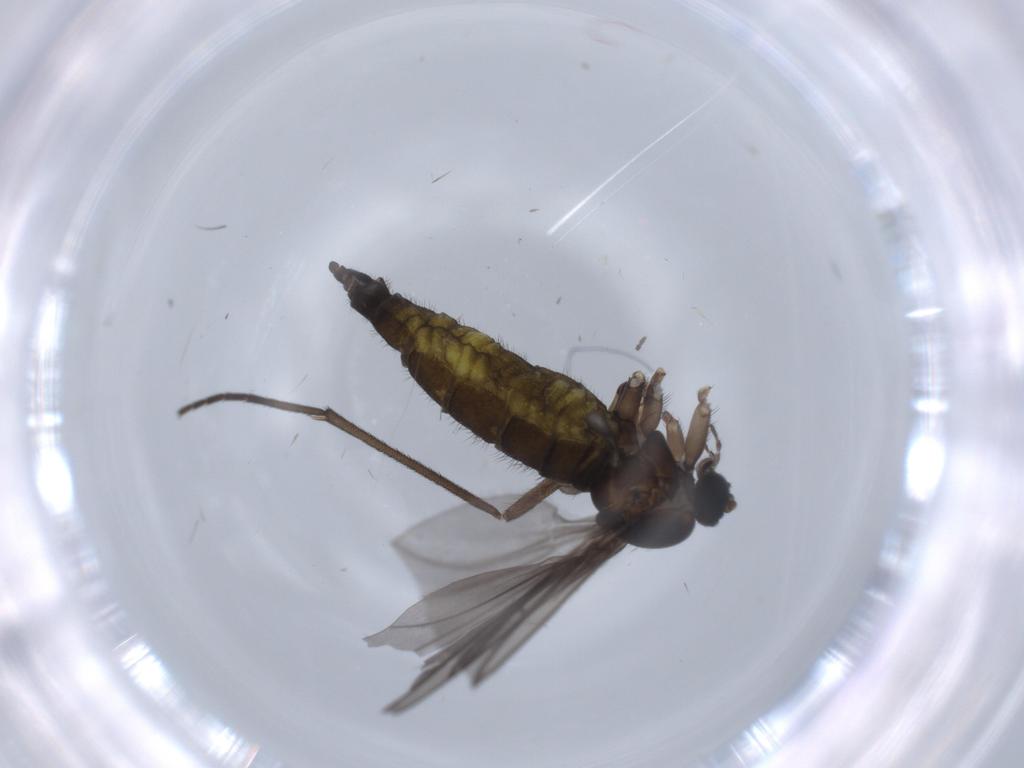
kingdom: Animalia
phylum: Arthropoda
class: Insecta
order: Diptera
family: Sciaridae
